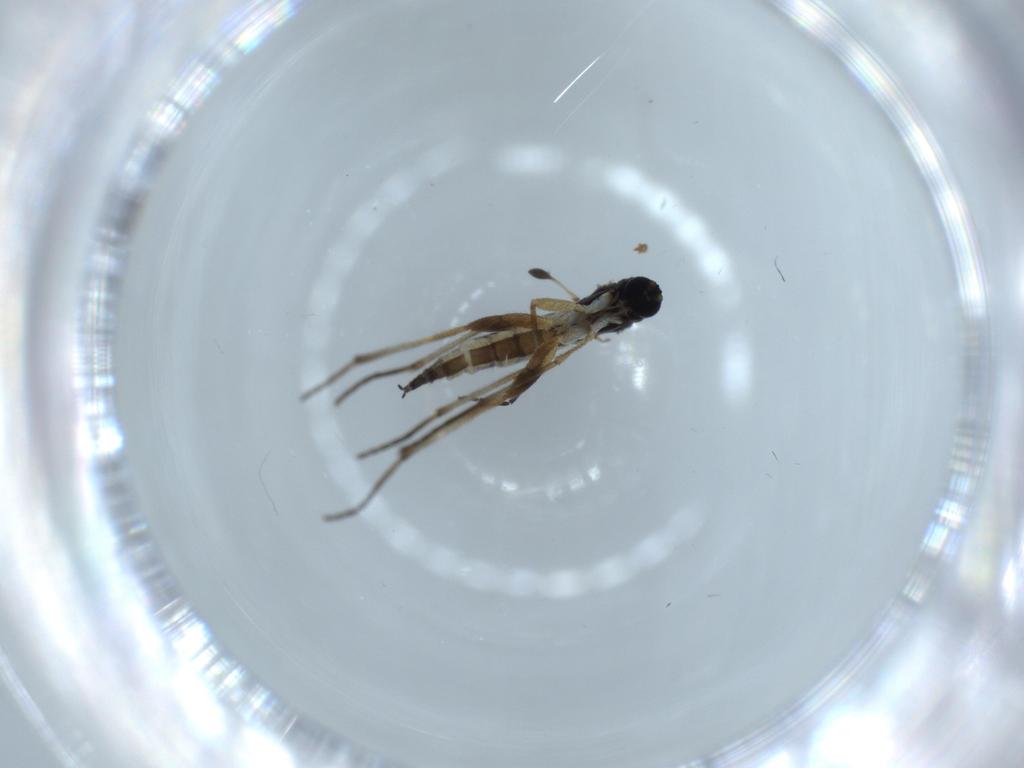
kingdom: Animalia
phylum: Arthropoda
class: Insecta
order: Diptera
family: Sciaridae
